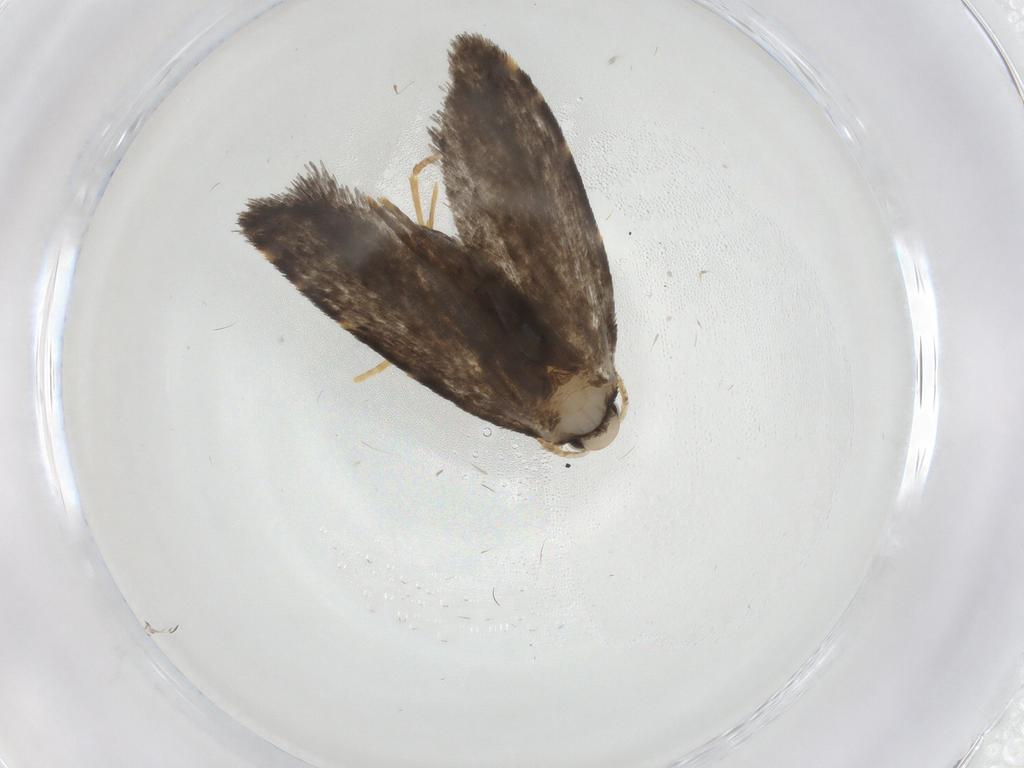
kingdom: Animalia
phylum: Arthropoda
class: Insecta
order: Lepidoptera
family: Psychidae
